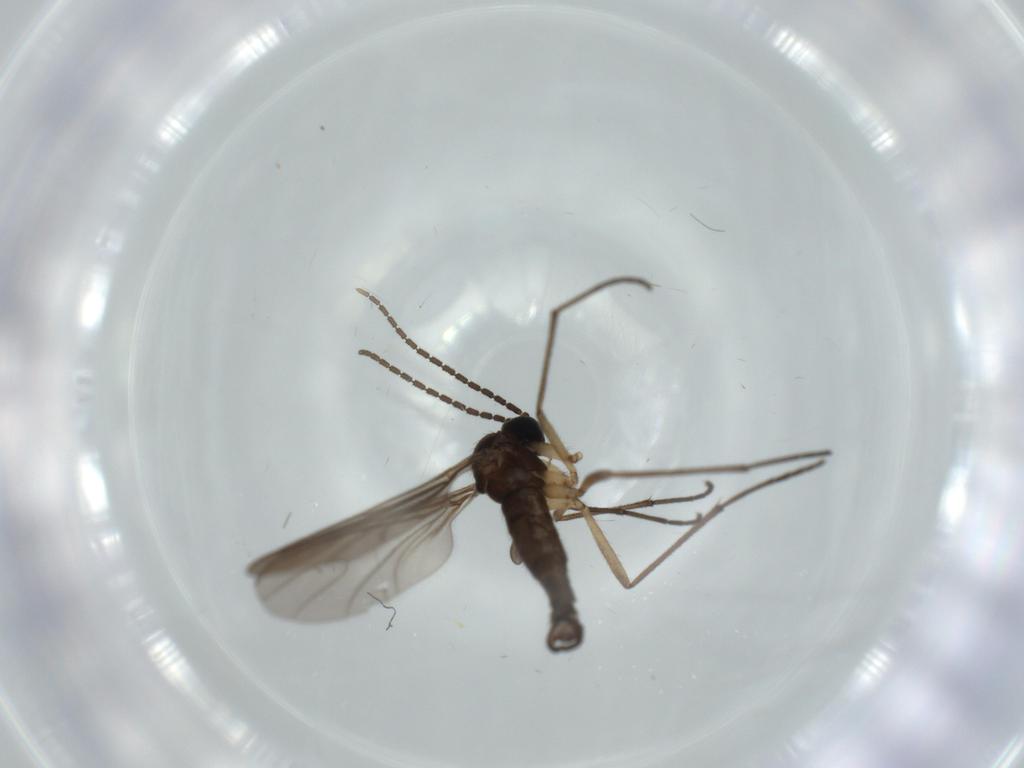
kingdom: Animalia
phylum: Arthropoda
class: Insecta
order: Diptera
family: Sciaridae
